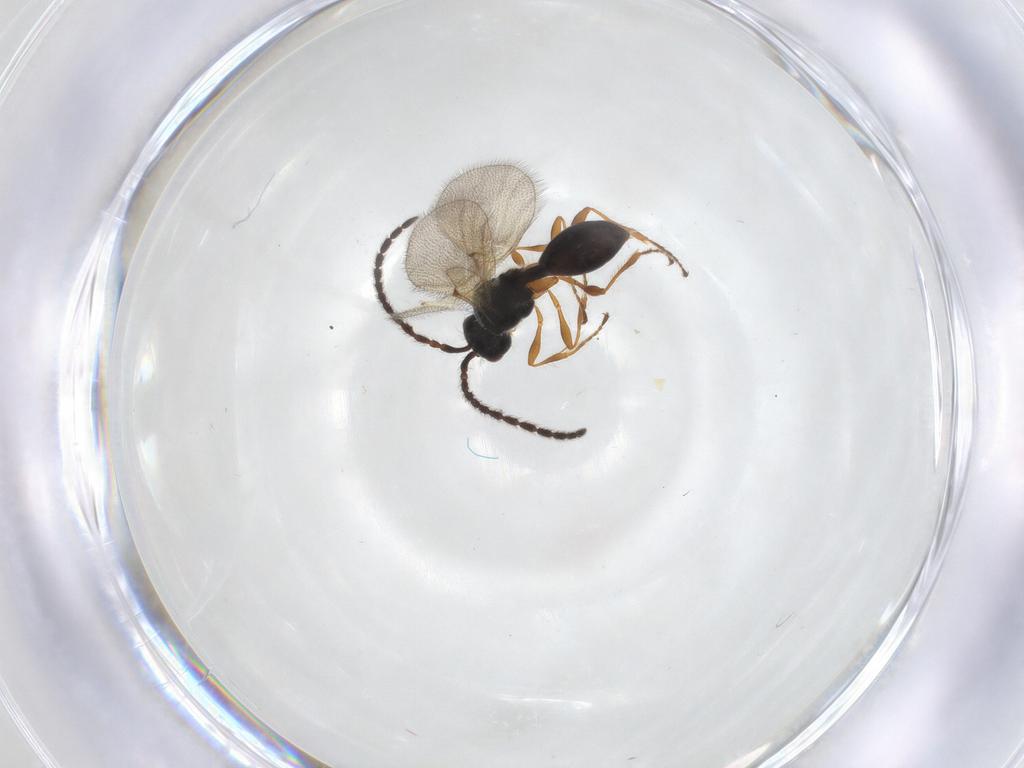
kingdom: Animalia
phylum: Arthropoda
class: Insecta
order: Hymenoptera
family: Diapriidae
